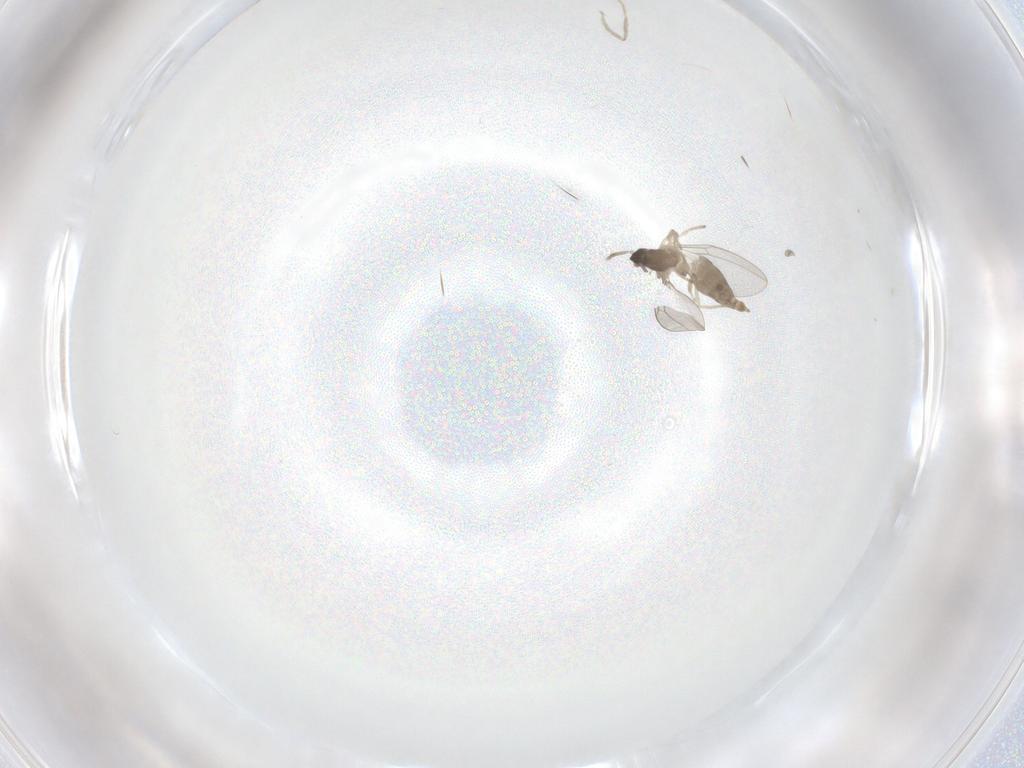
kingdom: Animalia
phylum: Arthropoda
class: Insecta
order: Diptera
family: Cecidomyiidae
